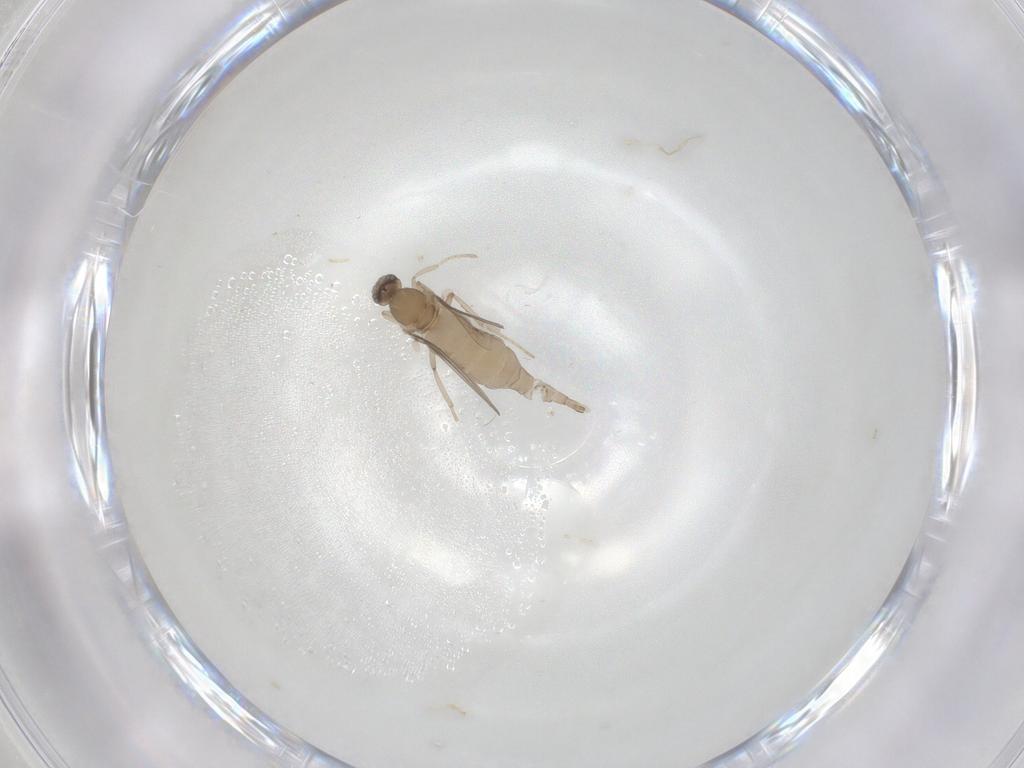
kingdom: Animalia
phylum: Arthropoda
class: Insecta
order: Diptera
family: Cecidomyiidae
